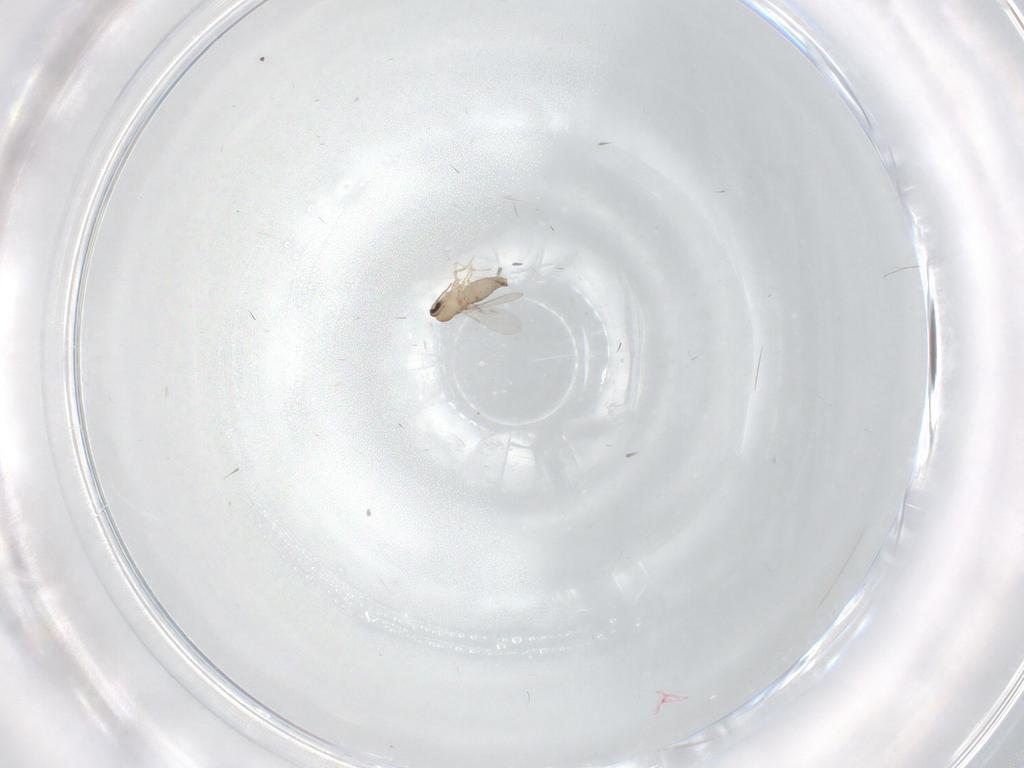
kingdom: Animalia
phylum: Arthropoda
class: Insecta
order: Diptera
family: Ceratopogonidae
